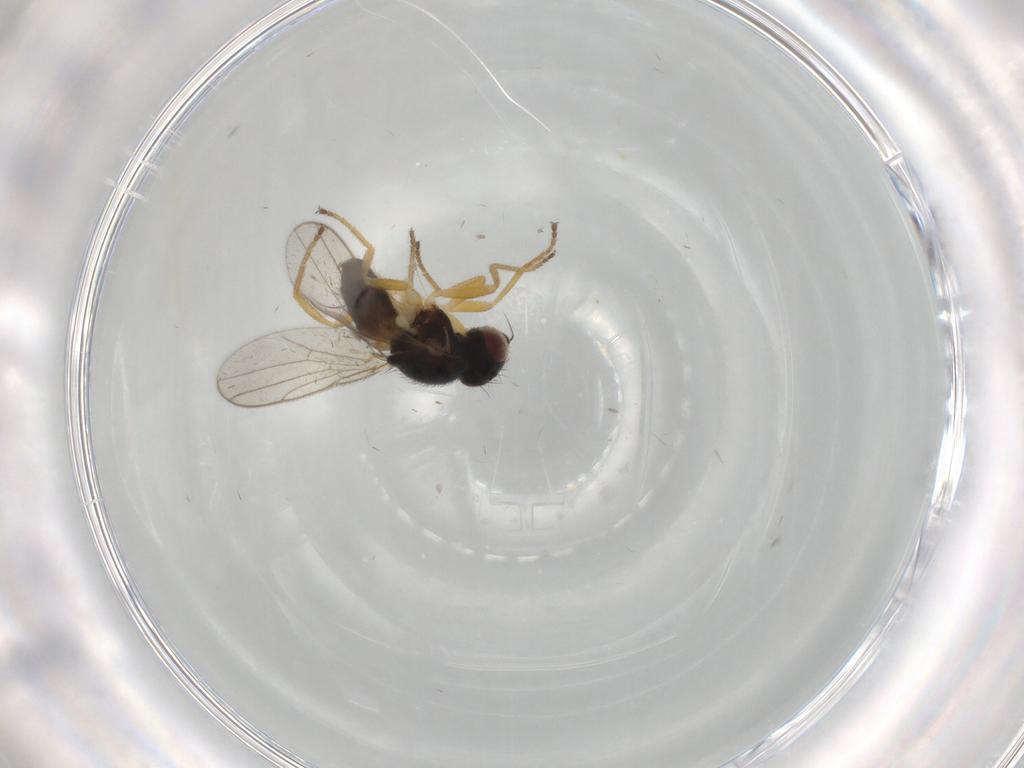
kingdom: Animalia
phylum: Arthropoda
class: Insecta
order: Diptera
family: Chloropidae
